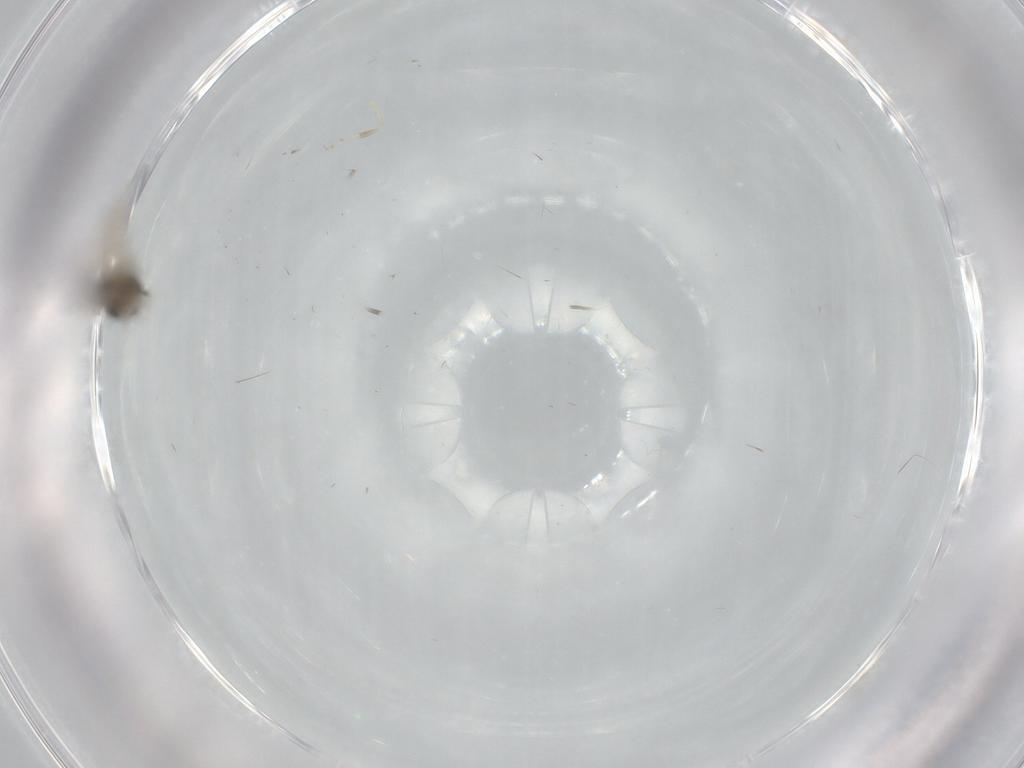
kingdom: Animalia
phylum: Arthropoda
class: Insecta
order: Diptera
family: Cecidomyiidae
